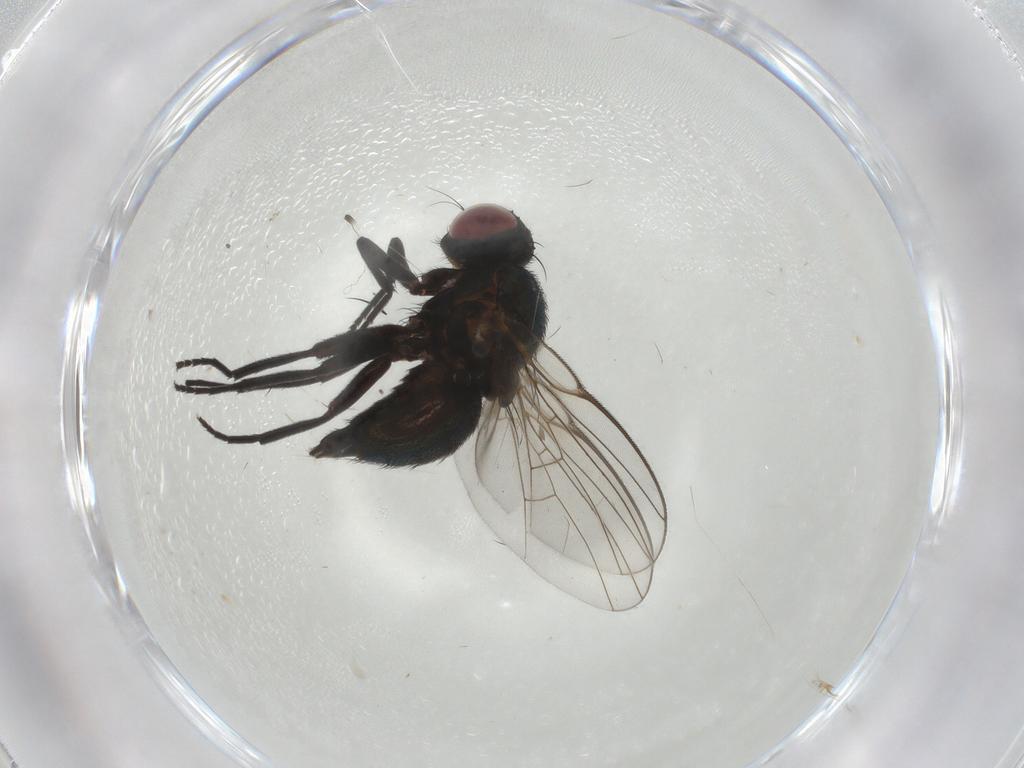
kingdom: Animalia
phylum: Arthropoda
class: Insecta
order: Diptera
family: Agromyzidae
